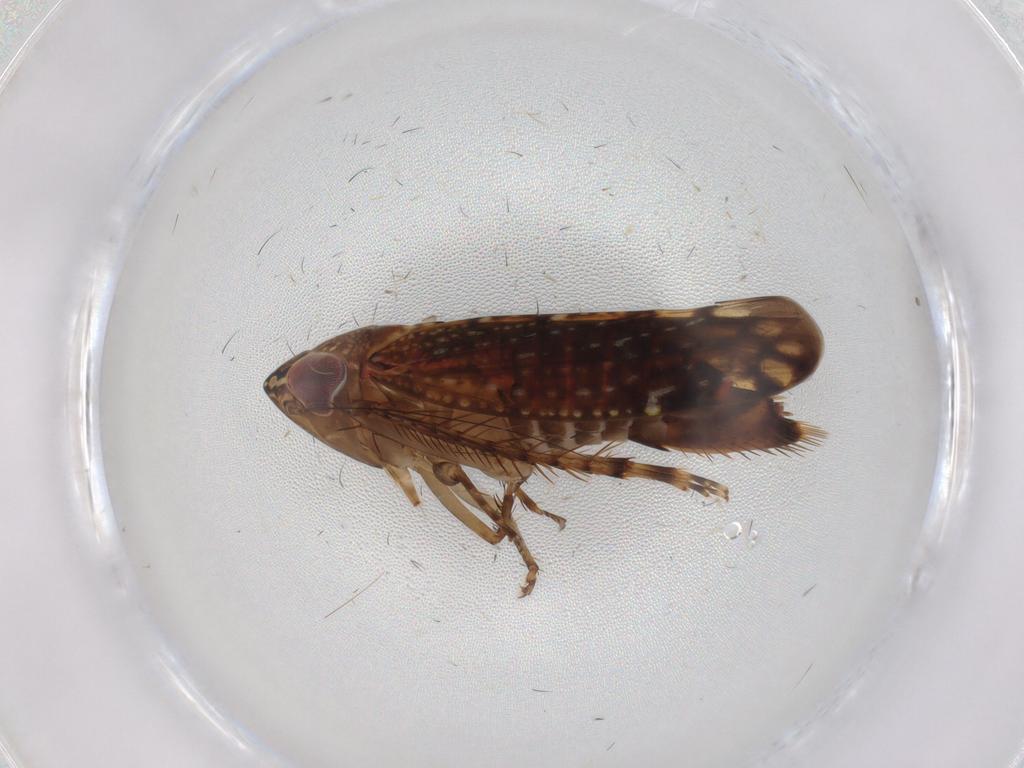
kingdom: Animalia
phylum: Arthropoda
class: Insecta
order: Hemiptera
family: Cicadellidae
